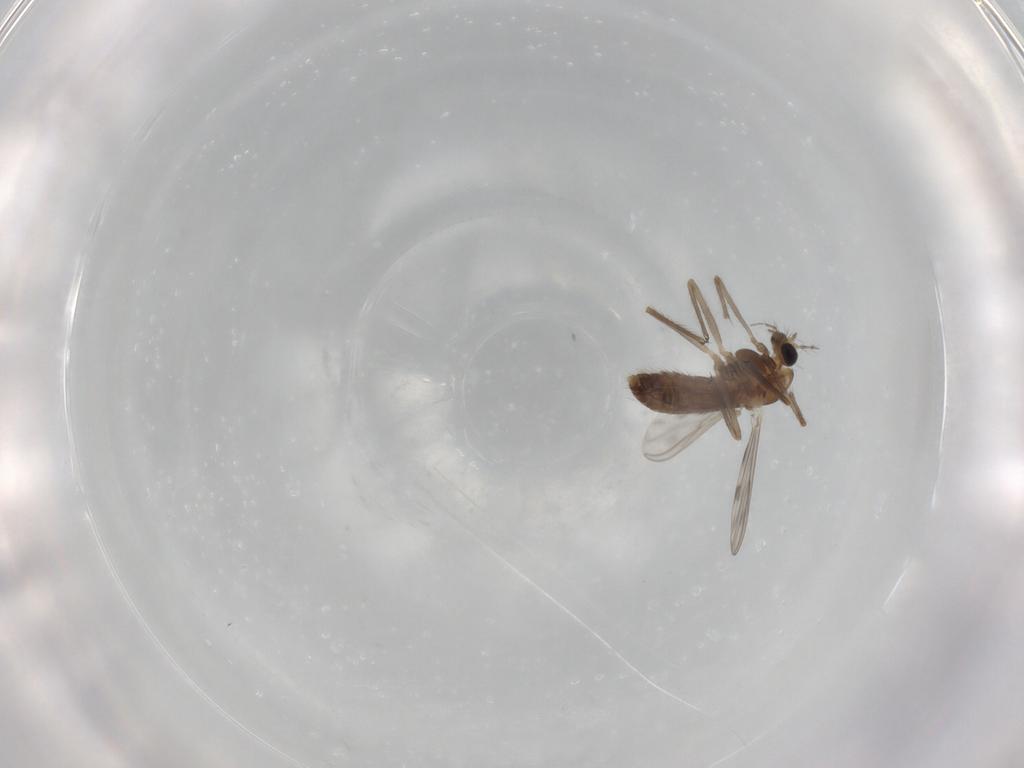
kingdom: Animalia
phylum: Arthropoda
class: Insecta
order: Diptera
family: Chironomidae
